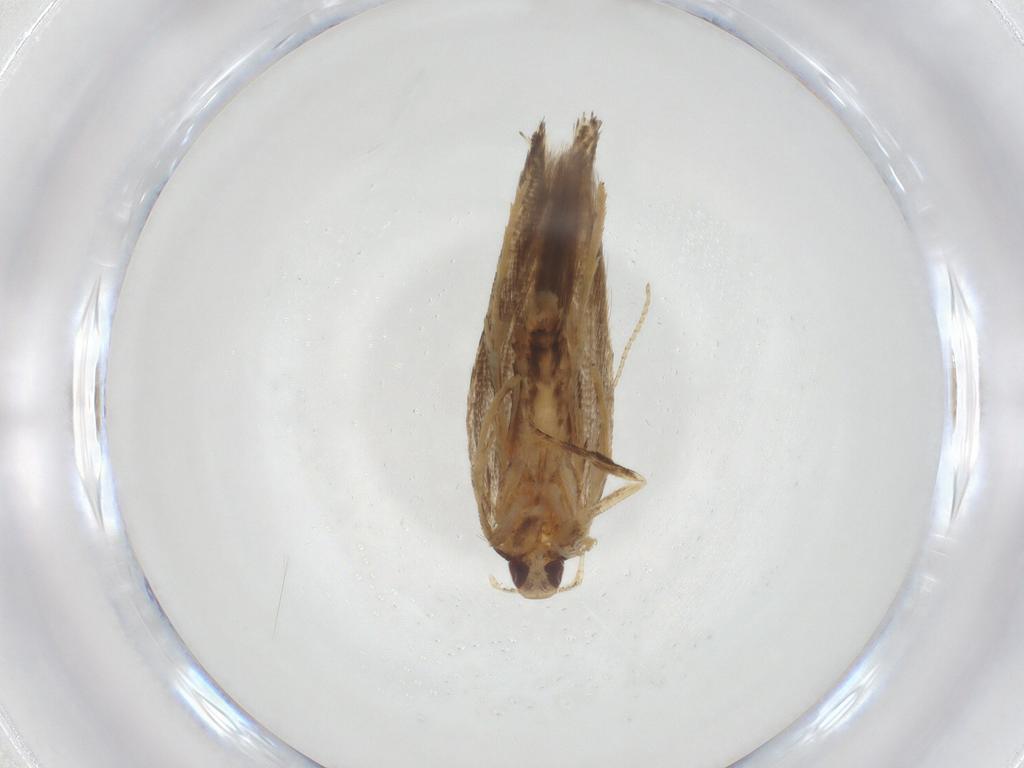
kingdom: Animalia
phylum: Arthropoda
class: Insecta
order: Lepidoptera
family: Cosmopterigidae
